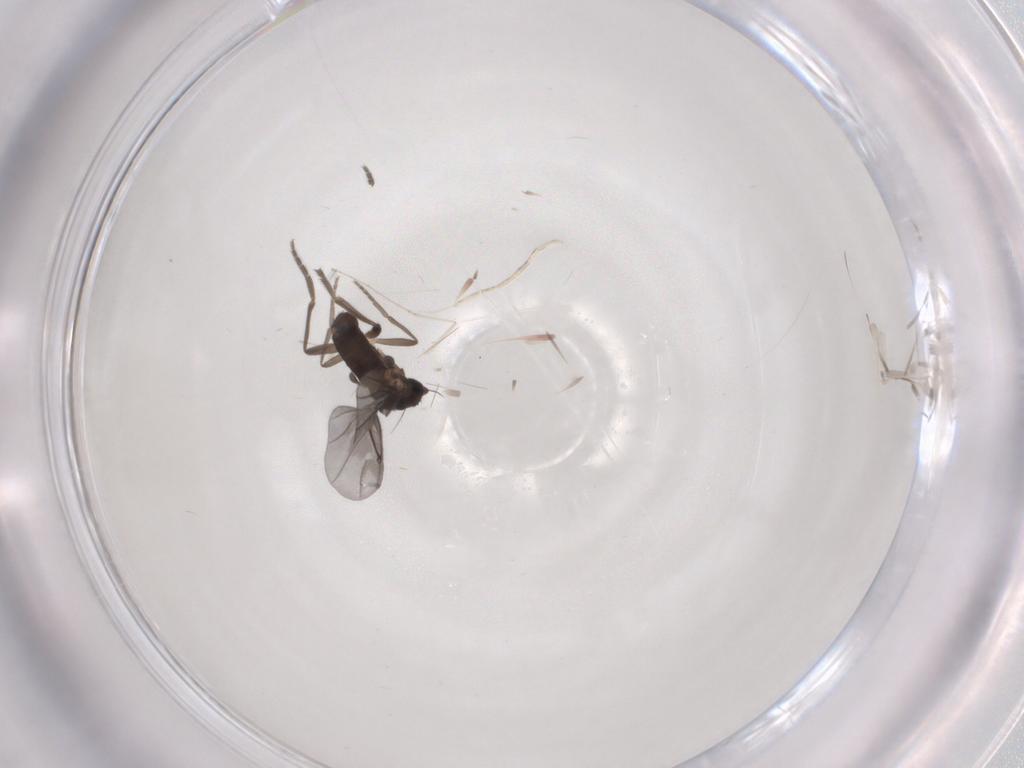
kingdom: Animalia
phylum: Arthropoda
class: Insecta
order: Diptera
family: Phoridae
